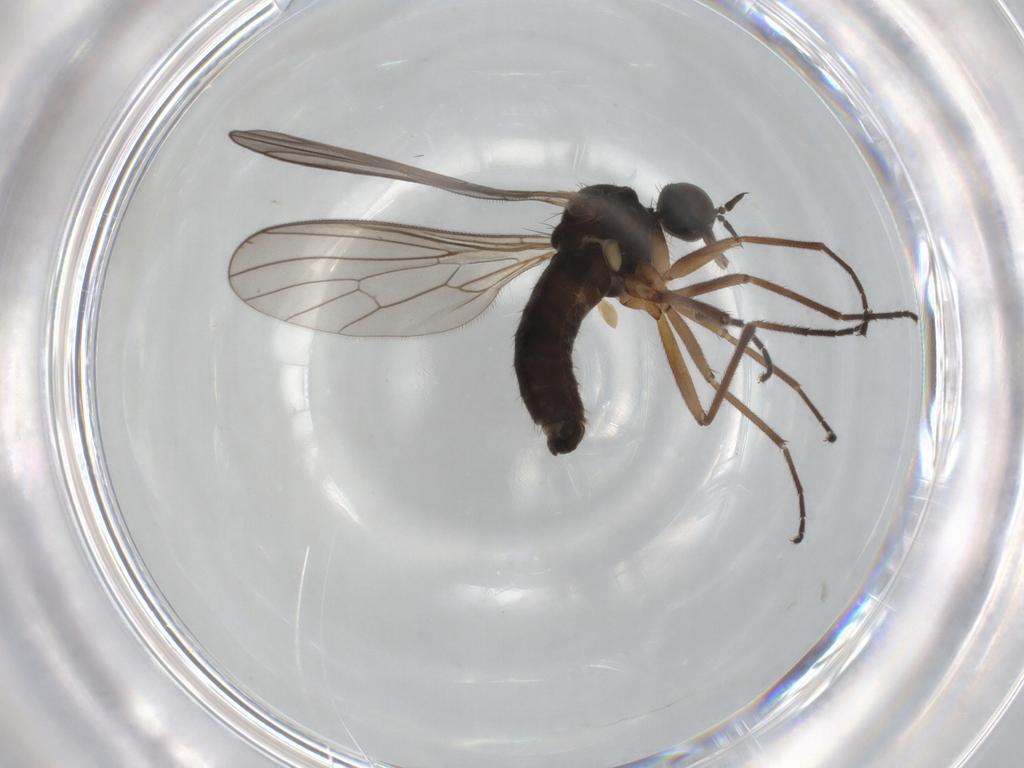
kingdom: Animalia
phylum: Arthropoda
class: Insecta
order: Diptera
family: Empididae
